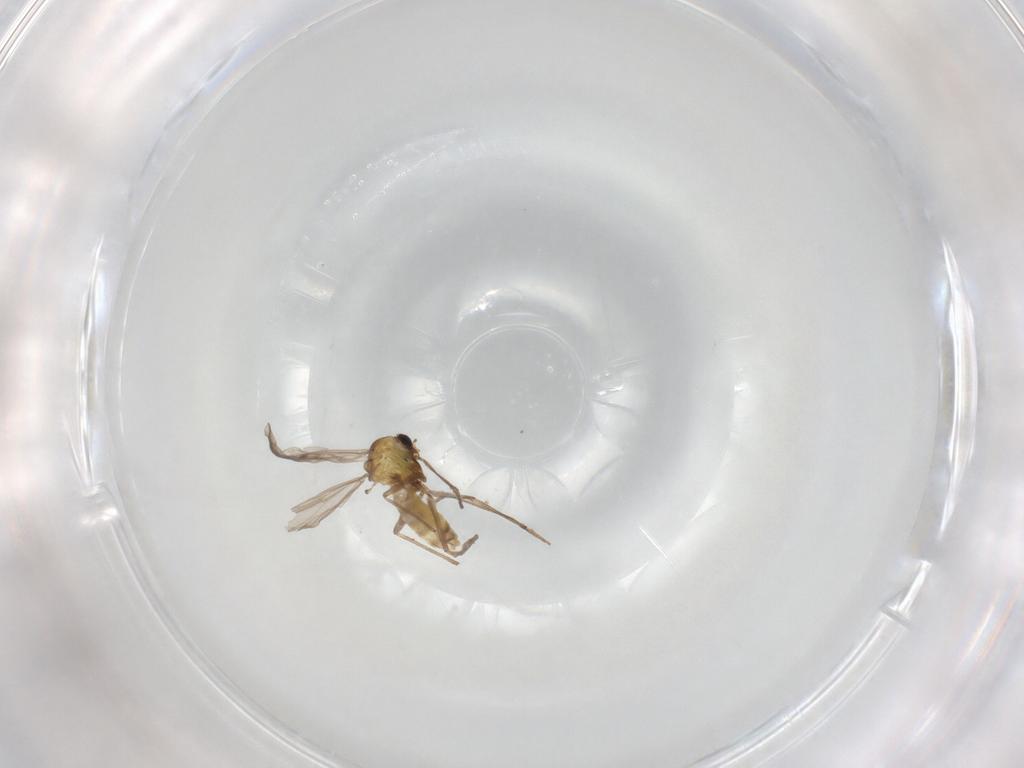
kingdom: Animalia
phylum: Arthropoda
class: Insecta
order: Diptera
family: Chironomidae
